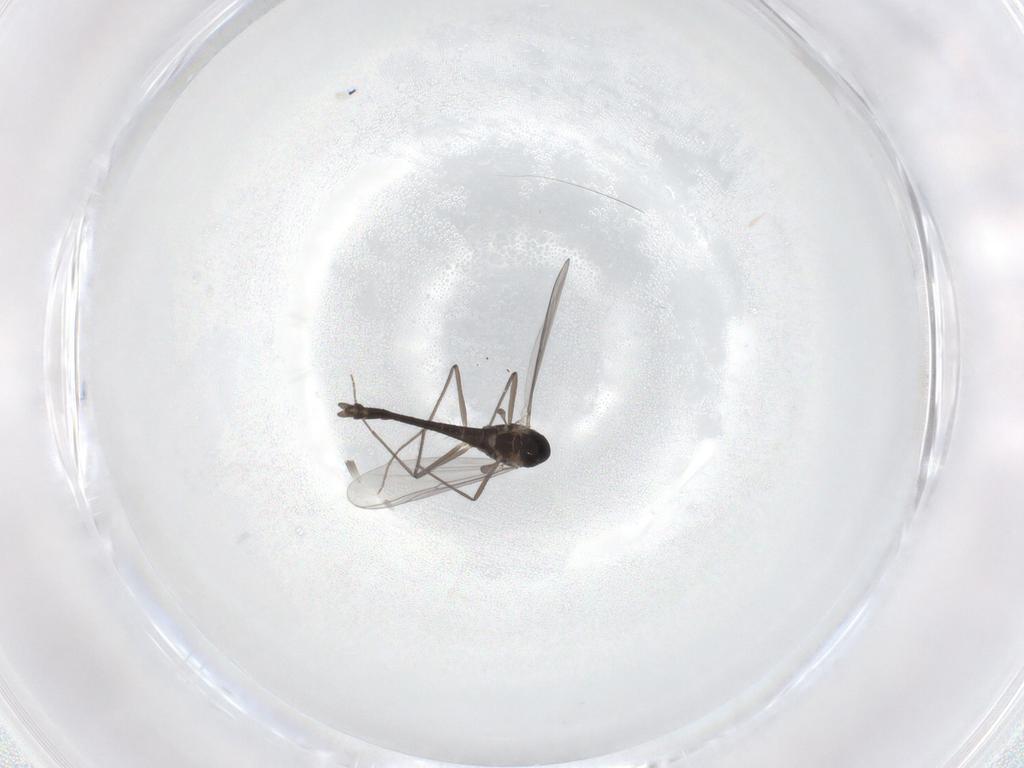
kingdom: Animalia
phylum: Arthropoda
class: Insecta
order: Diptera
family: Chironomidae
